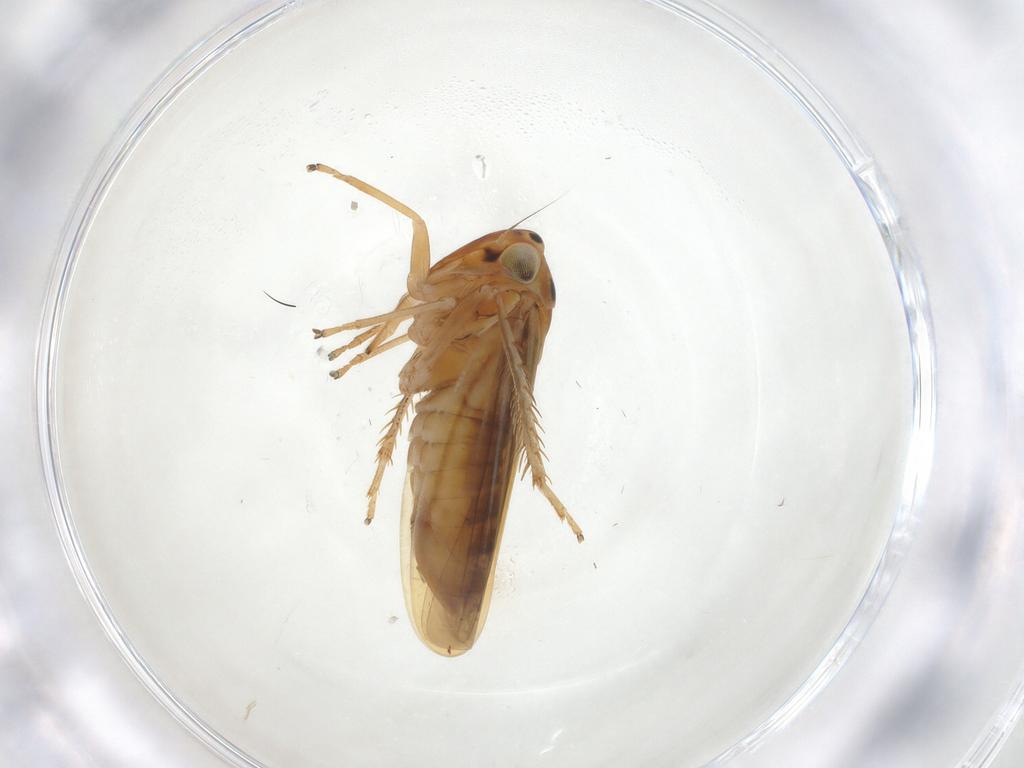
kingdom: Animalia
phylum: Arthropoda
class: Insecta
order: Hemiptera
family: Cicadellidae
